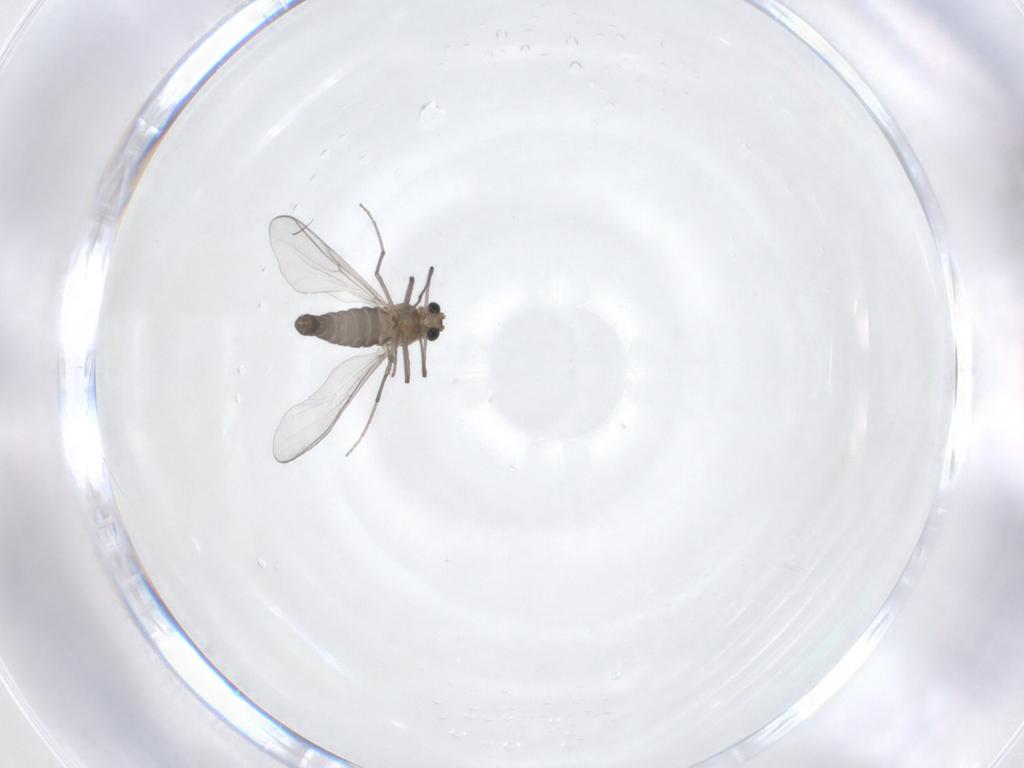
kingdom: Animalia
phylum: Arthropoda
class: Insecta
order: Diptera
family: Chironomidae
